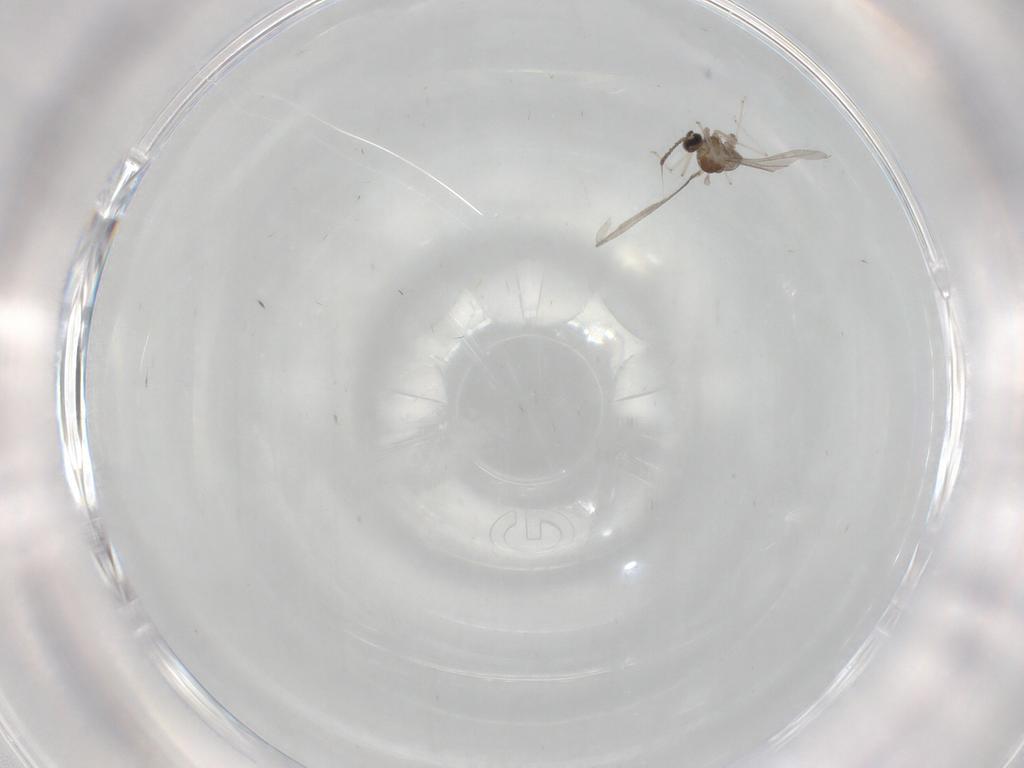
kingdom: Animalia
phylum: Arthropoda
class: Insecta
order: Diptera
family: Cecidomyiidae
